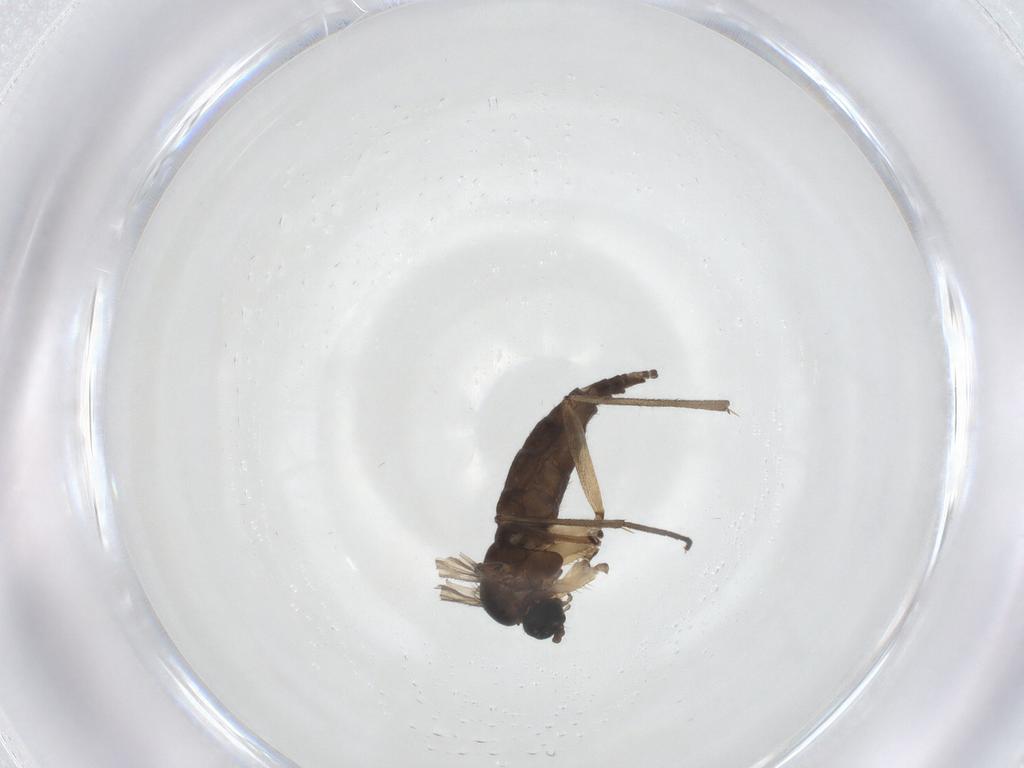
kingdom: Animalia
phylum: Arthropoda
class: Insecta
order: Diptera
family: Sciaridae
